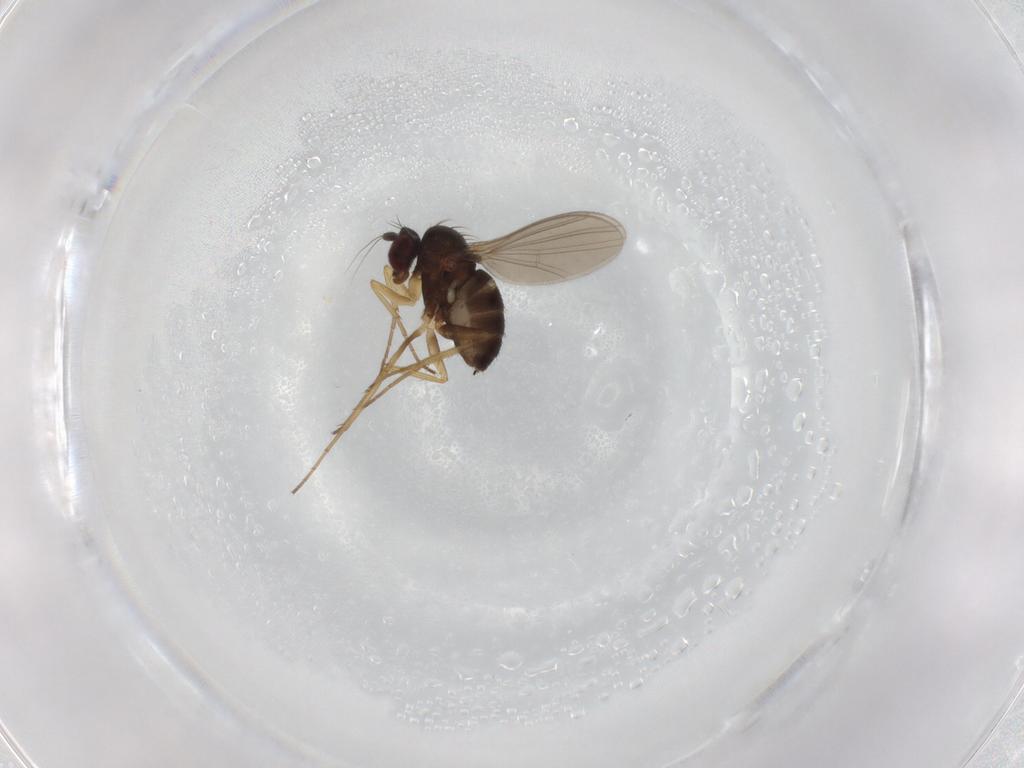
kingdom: Animalia
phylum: Arthropoda
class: Insecta
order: Diptera
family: Dolichopodidae
